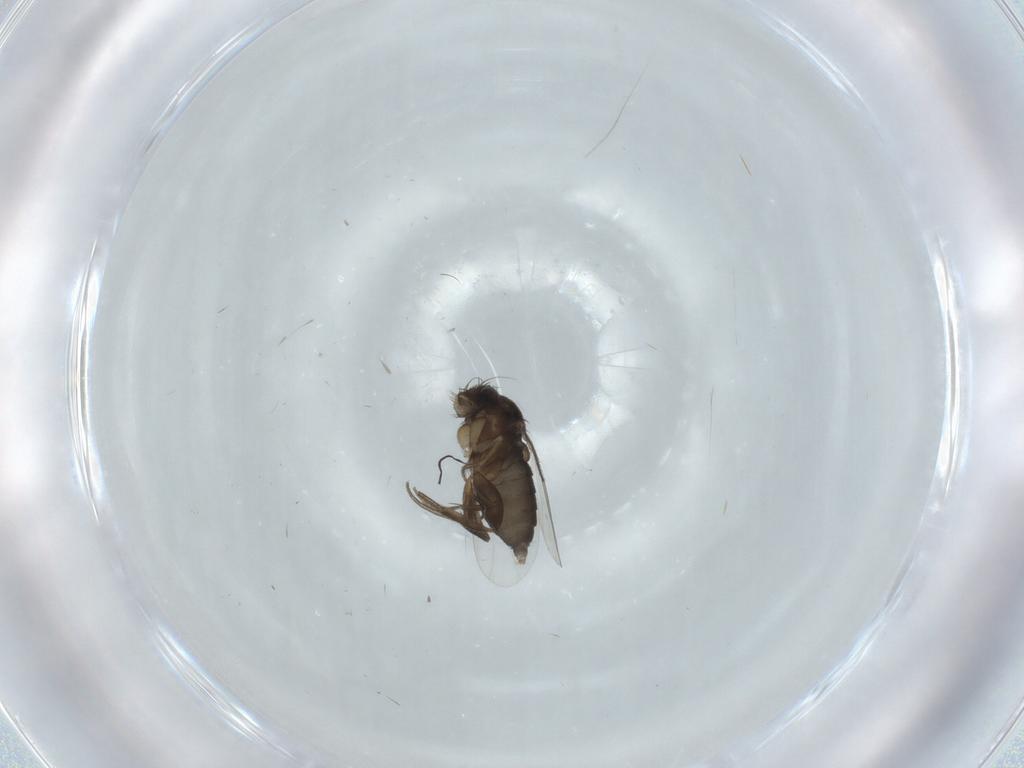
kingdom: Animalia
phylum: Arthropoda
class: Insecta
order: Diptera
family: Phoridae
